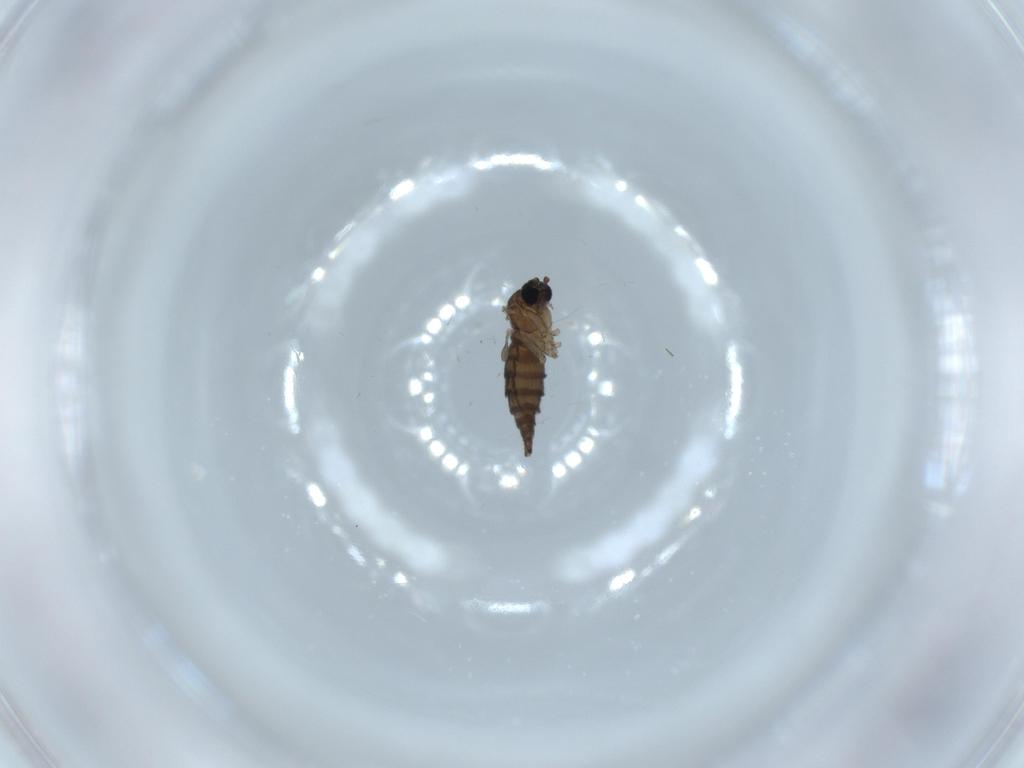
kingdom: Animalia
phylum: Arthropoda
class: Insecta
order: Diptera
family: Sciaridae
